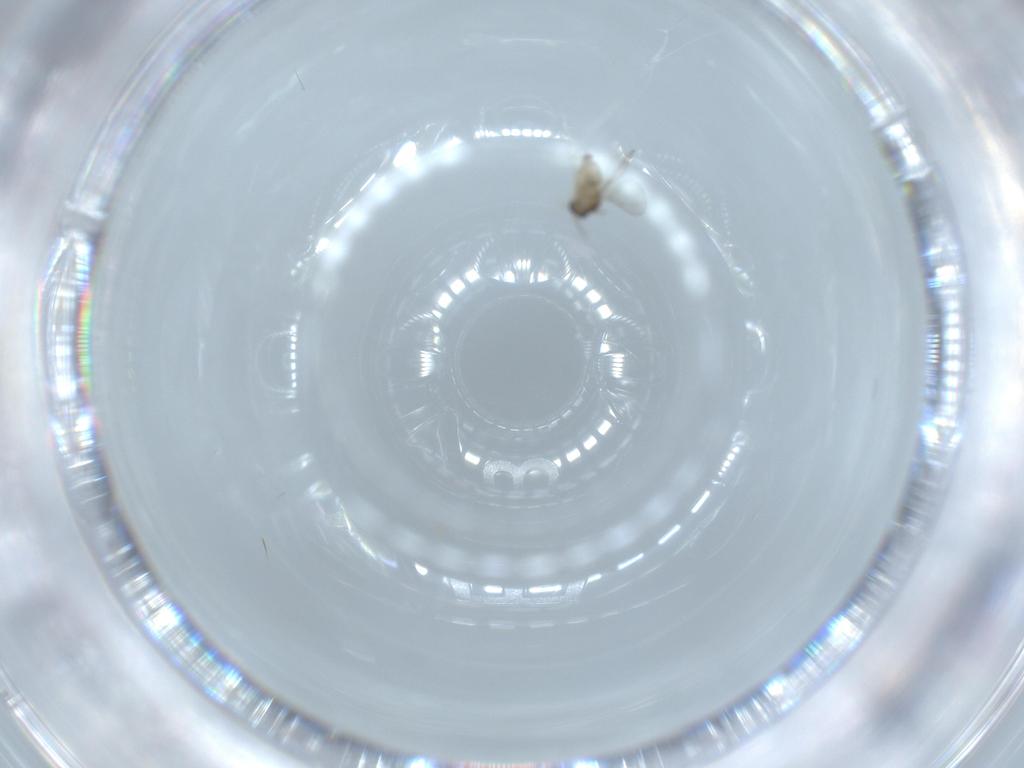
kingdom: Animalia
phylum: Arthropoda
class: Insecta
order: Diptera
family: Cecidomyiidae
